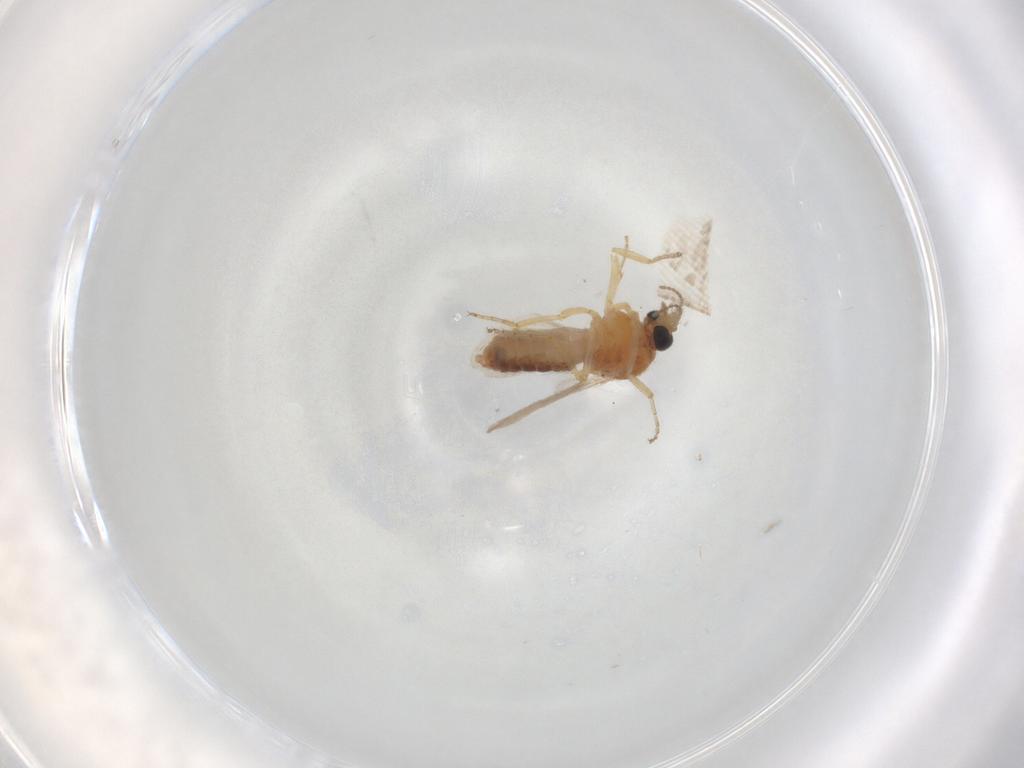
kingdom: Animalia
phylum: Arthropoda
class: Insecta
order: Diptera
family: Ceratopogonidae
